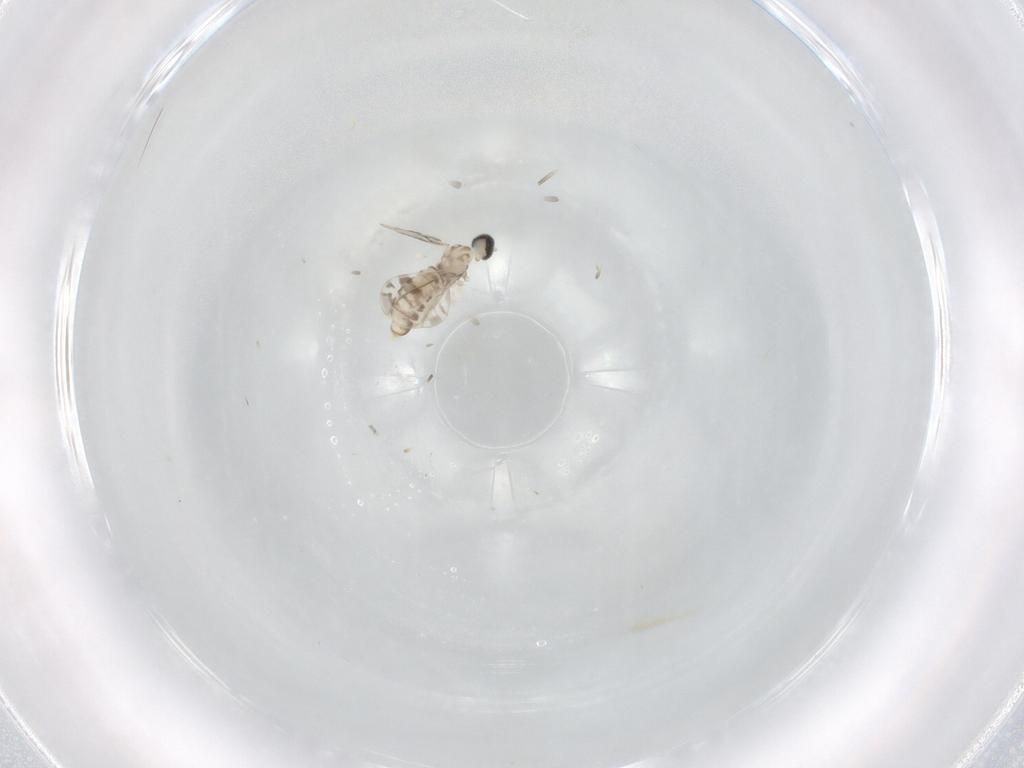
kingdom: Animalia
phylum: Arthropoda
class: Insecta
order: Diptera
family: Cecidomyiidae
